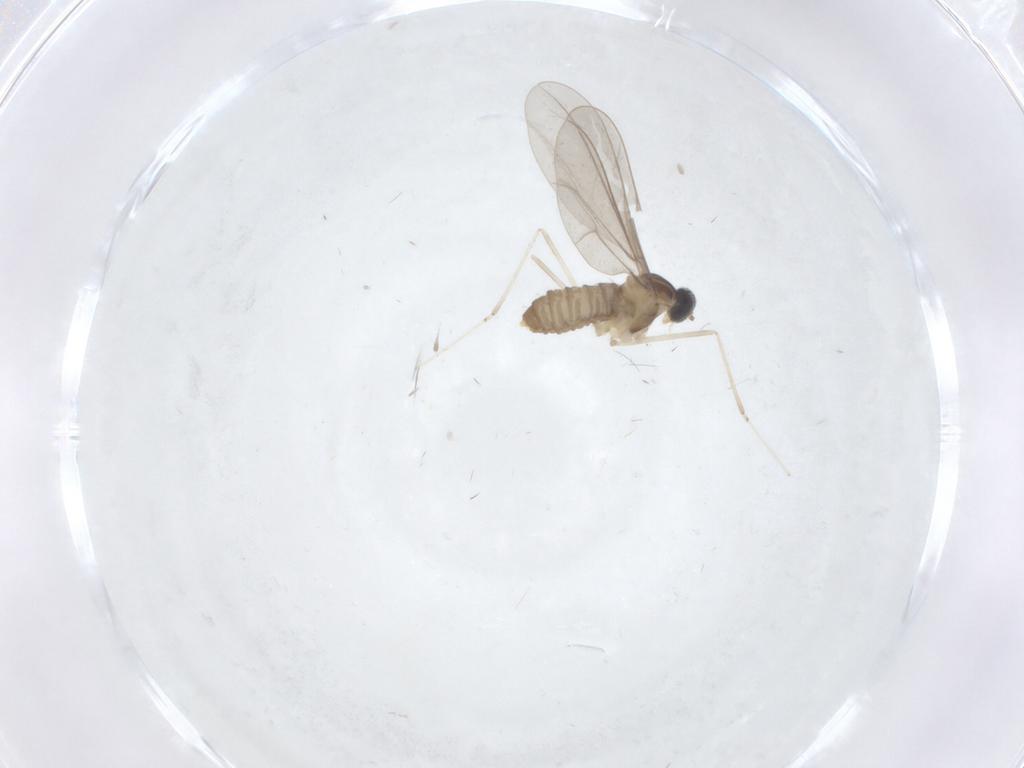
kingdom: Animalia
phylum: Arthropoda
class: Insecta
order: Diptera
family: Cecidomyiidae
